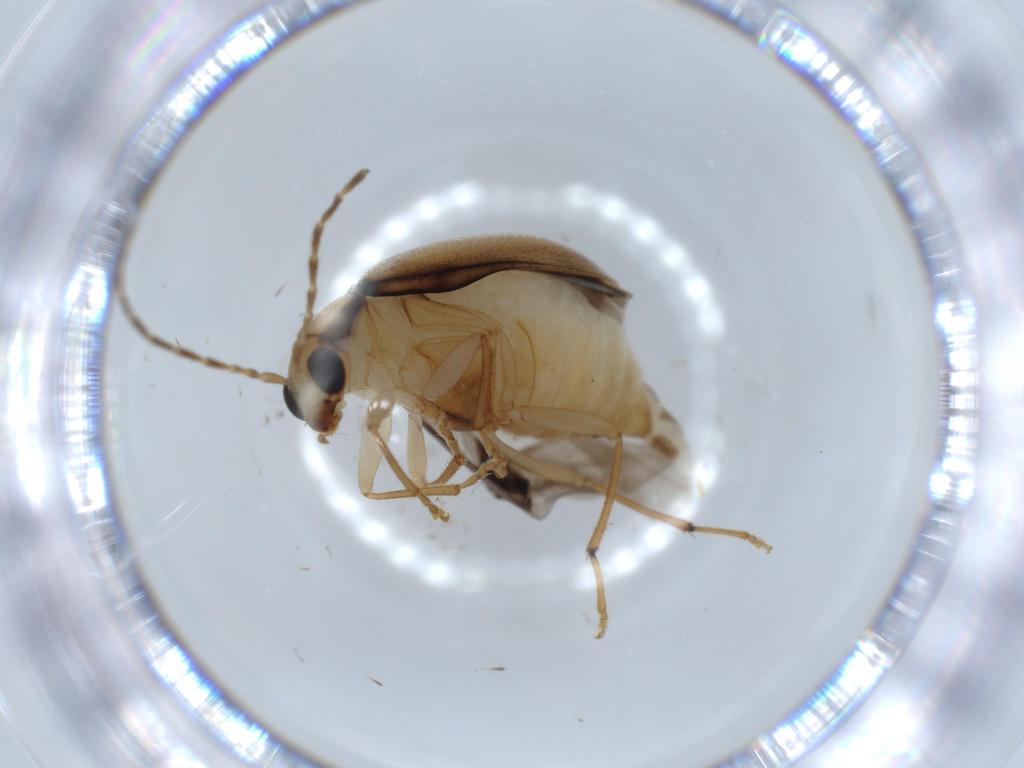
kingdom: Animalia
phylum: Arthropoda
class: Insecta
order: Coleoptera
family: Chrysomelidae
